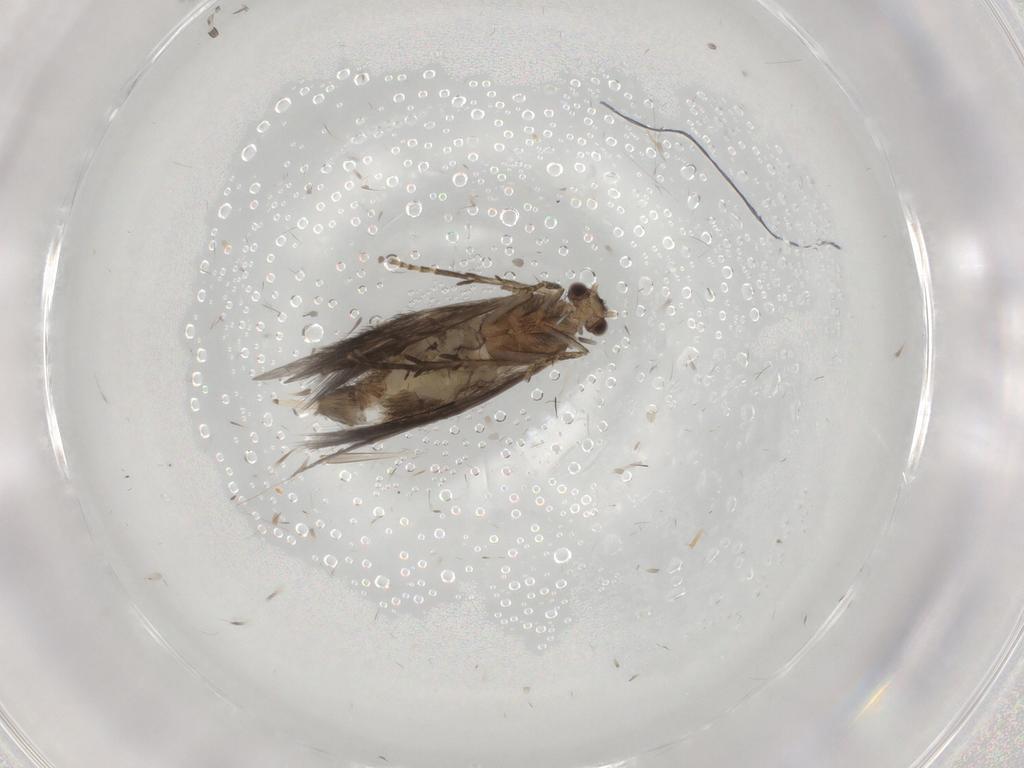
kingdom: Animalia
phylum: Arthropoda
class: Insecta
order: Trichoptera
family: Hydroptilidae
